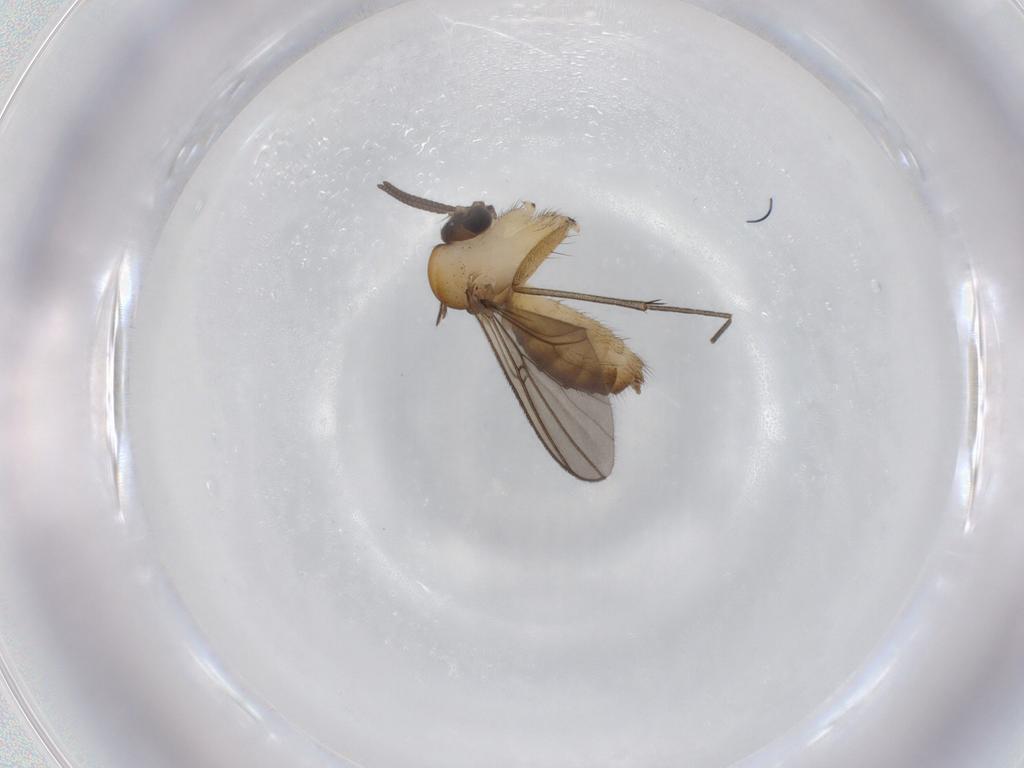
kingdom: Animalia
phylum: Arthropoda
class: Insecta
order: Diptera
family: Mycetophilidae
